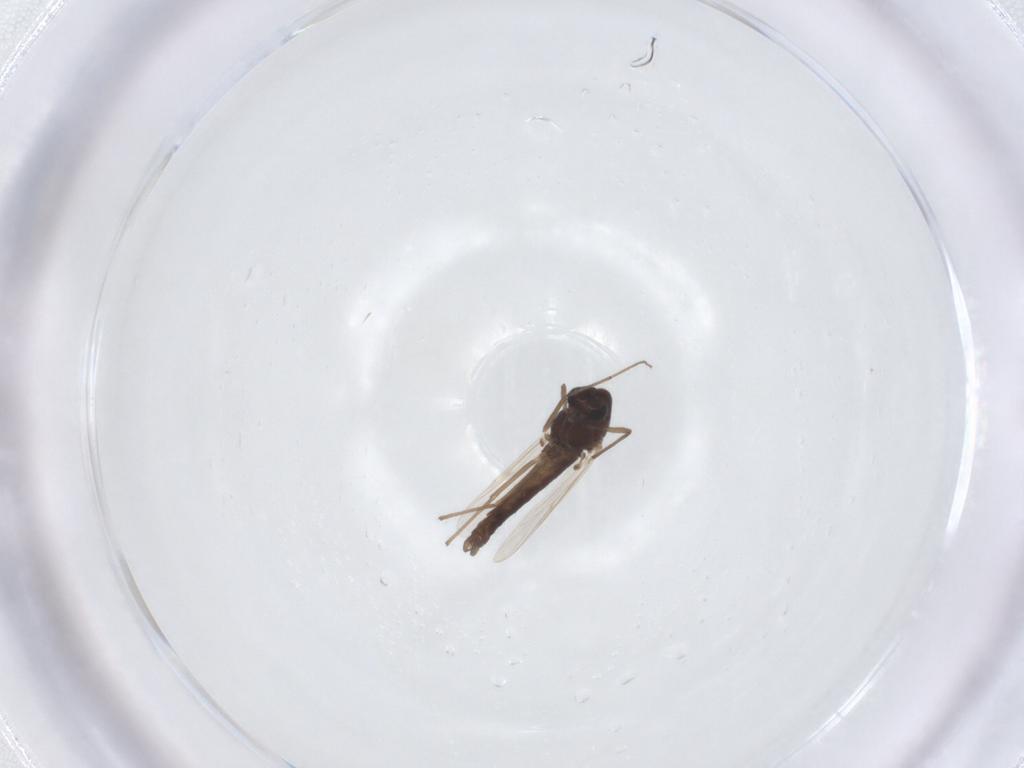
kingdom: Animalia
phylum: Arthropoda
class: Insecta
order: Diptera
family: Chironomidae
